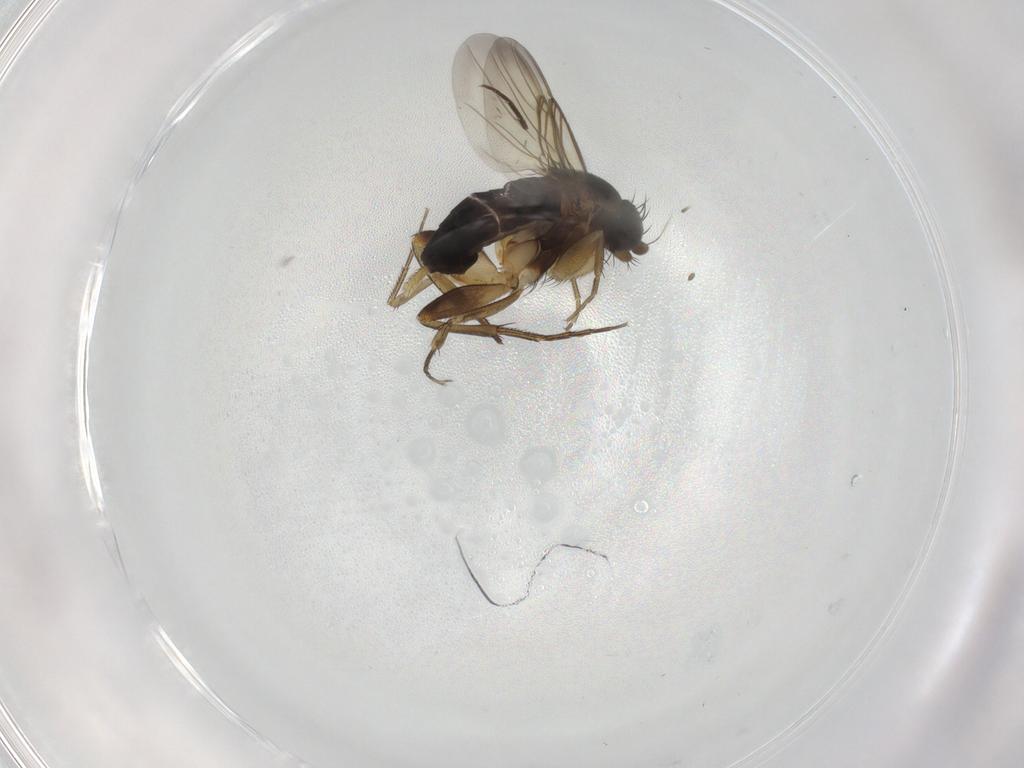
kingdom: Animalia
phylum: Arthropoda
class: Insecta
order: Diptera
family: Phoridae
